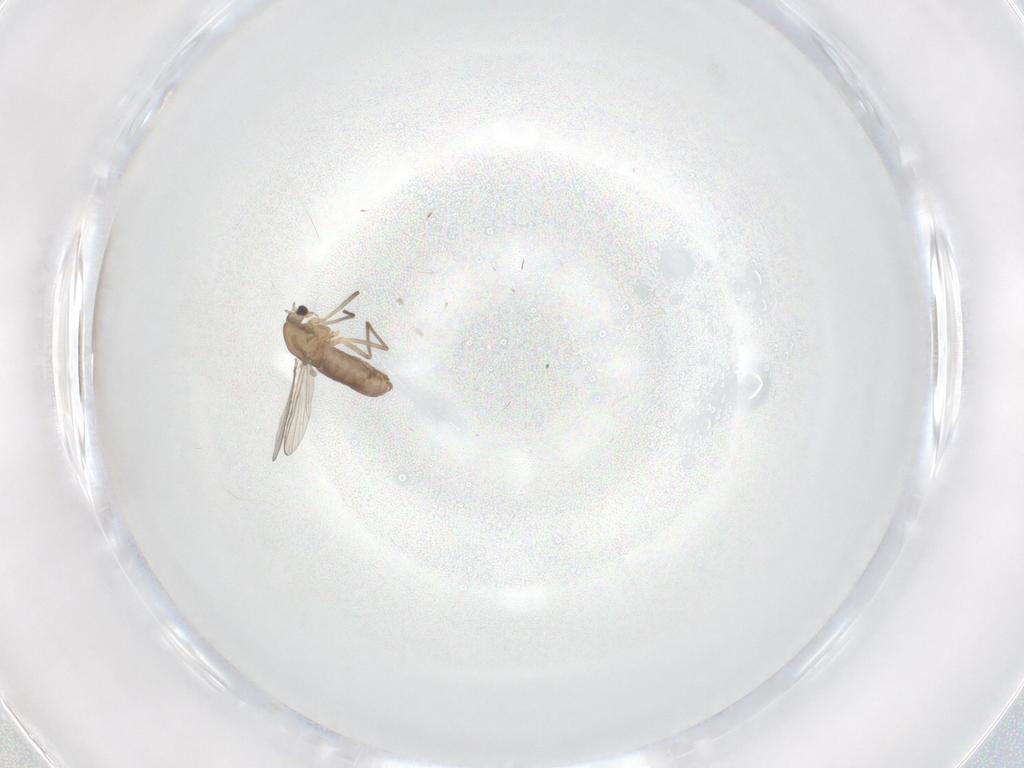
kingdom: Animalia
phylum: Arthropoda
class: Insecta
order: Diptera
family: Chironomidae
